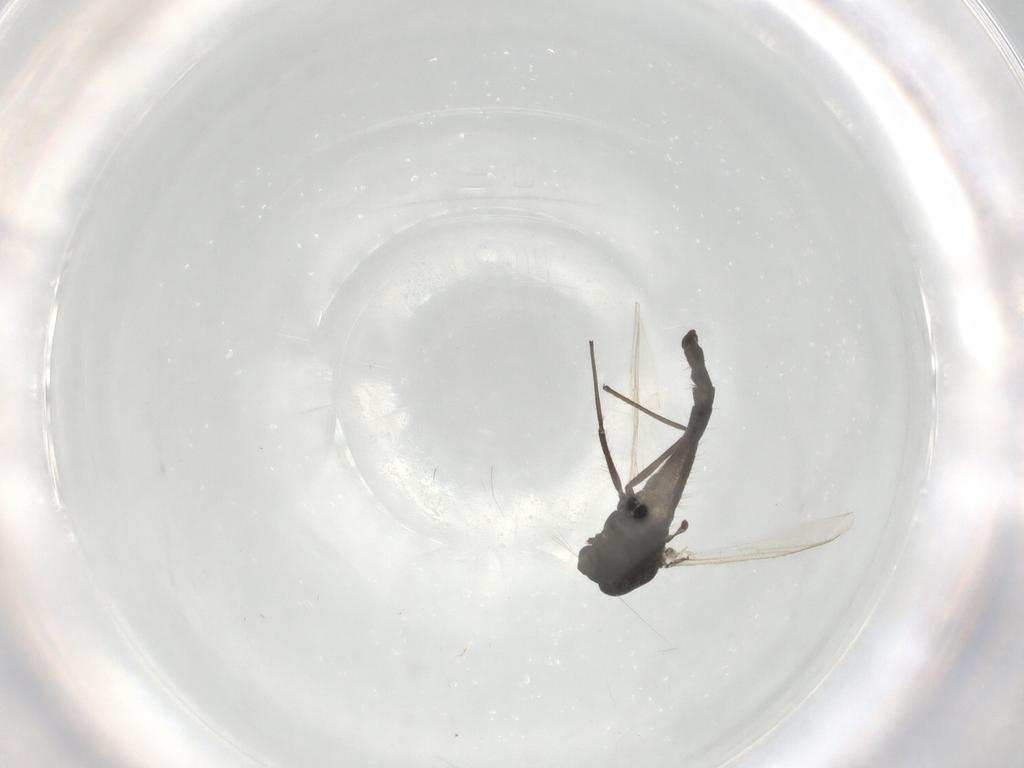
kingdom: Animalia
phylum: Arthropoda
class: Insecta
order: Diptera
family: Bombyliidae
